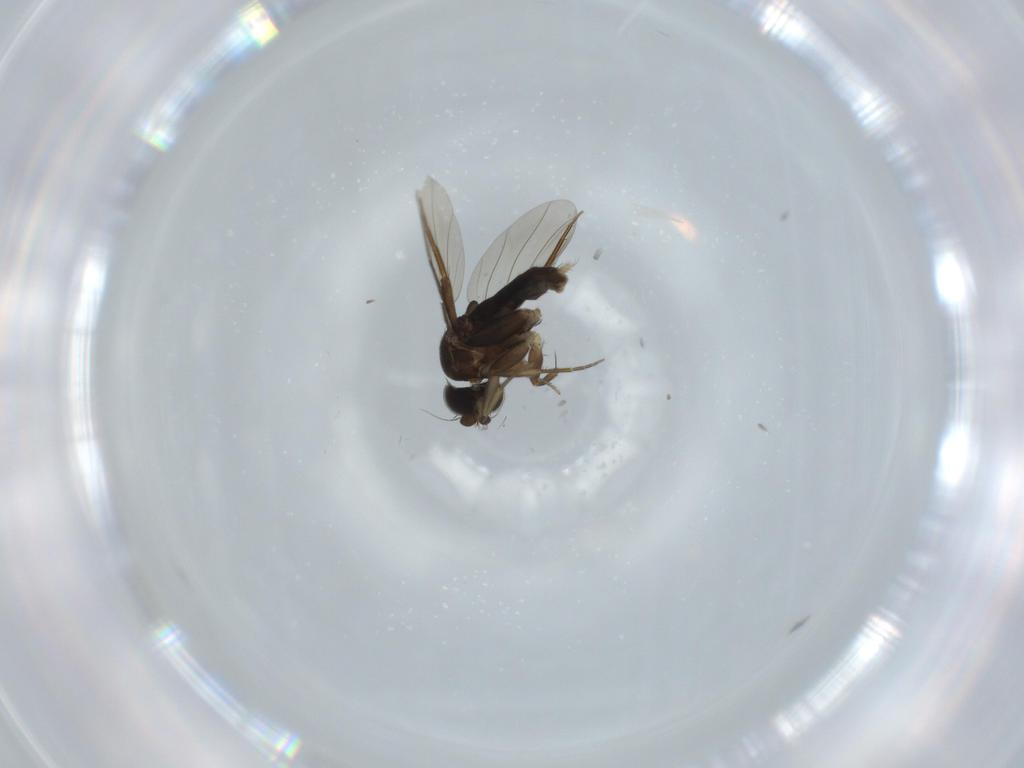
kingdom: Animalia
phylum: Arthropoda
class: Insecta
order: Diptera
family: Phoridae
